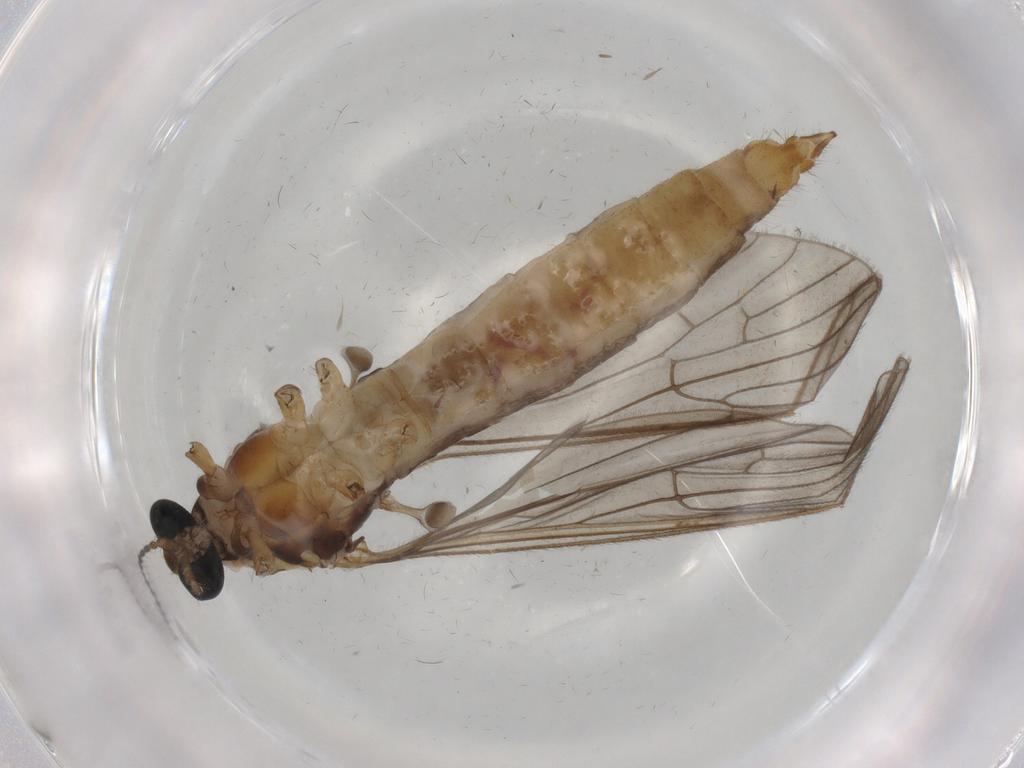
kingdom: Animalia
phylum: Arthropoda
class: Insecta
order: Diptera
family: Limoniidae
